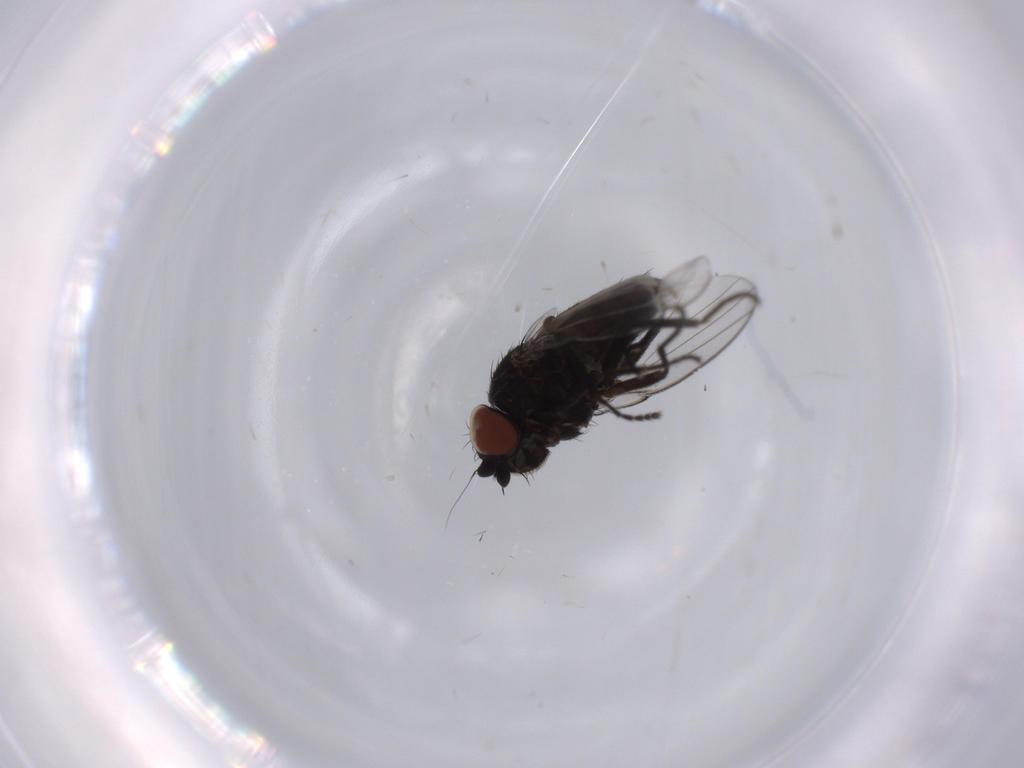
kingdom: Animalia
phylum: Arthropoda
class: Insecta
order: Diptera
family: Milichiidae
